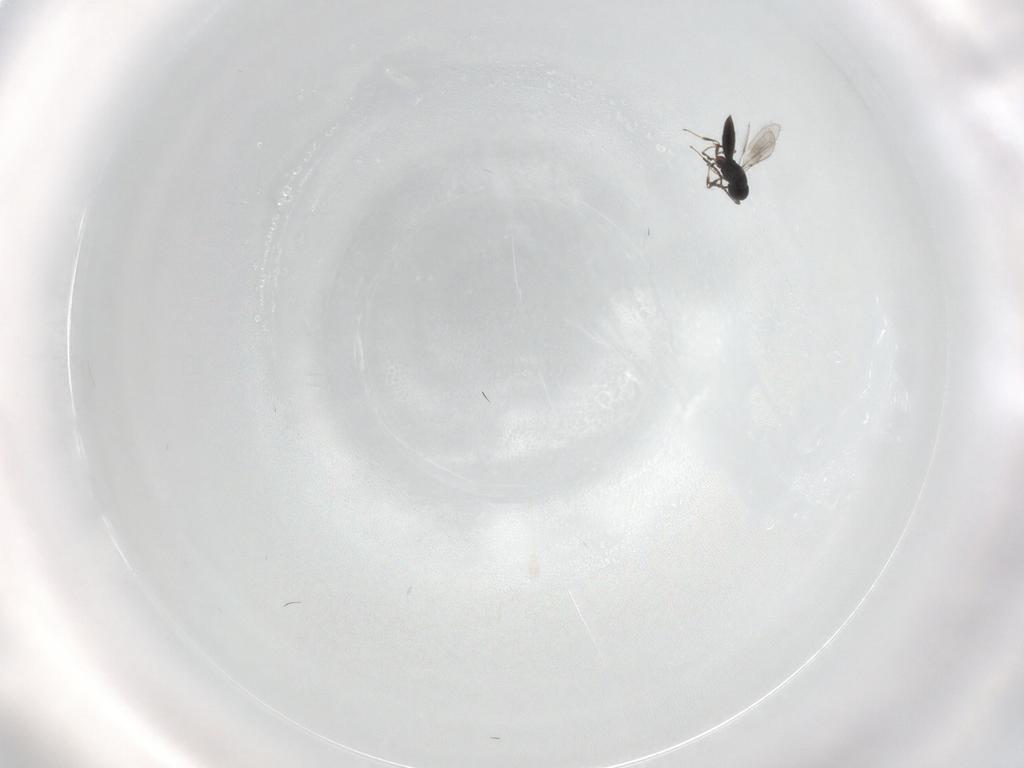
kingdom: Animalia
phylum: Arthropoda
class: Insecta
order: Hymenoptera
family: Scelionidae
